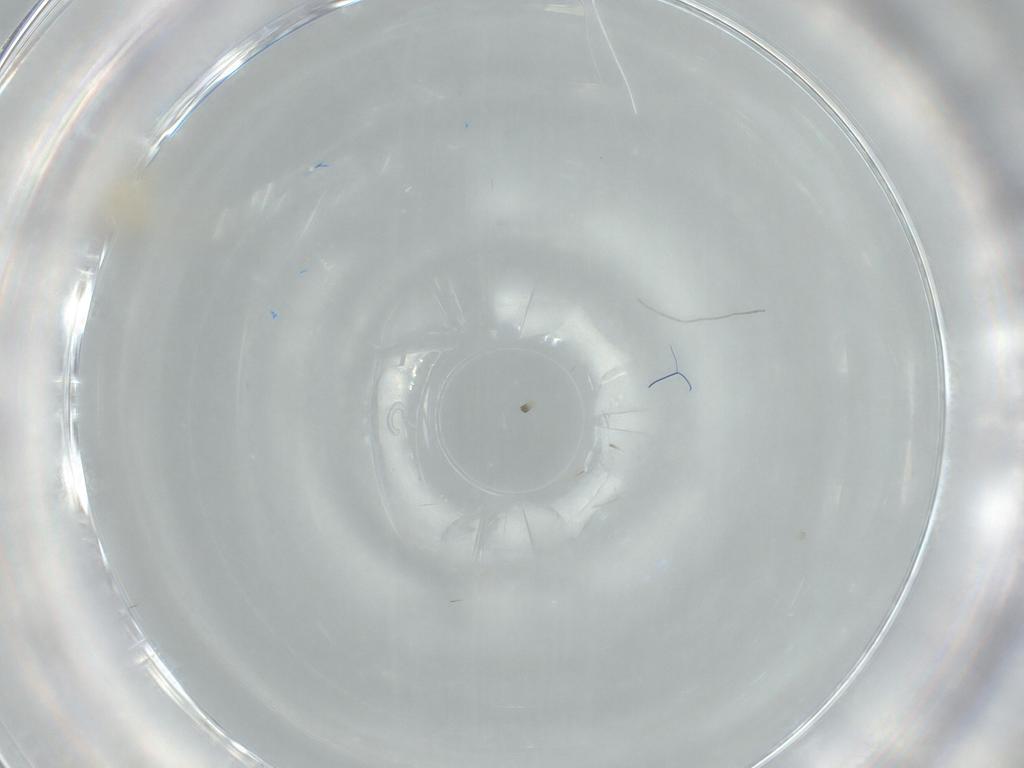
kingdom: Animalia
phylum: Arthropoda
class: Insecta
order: Diptera
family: Cecidomyiidae
